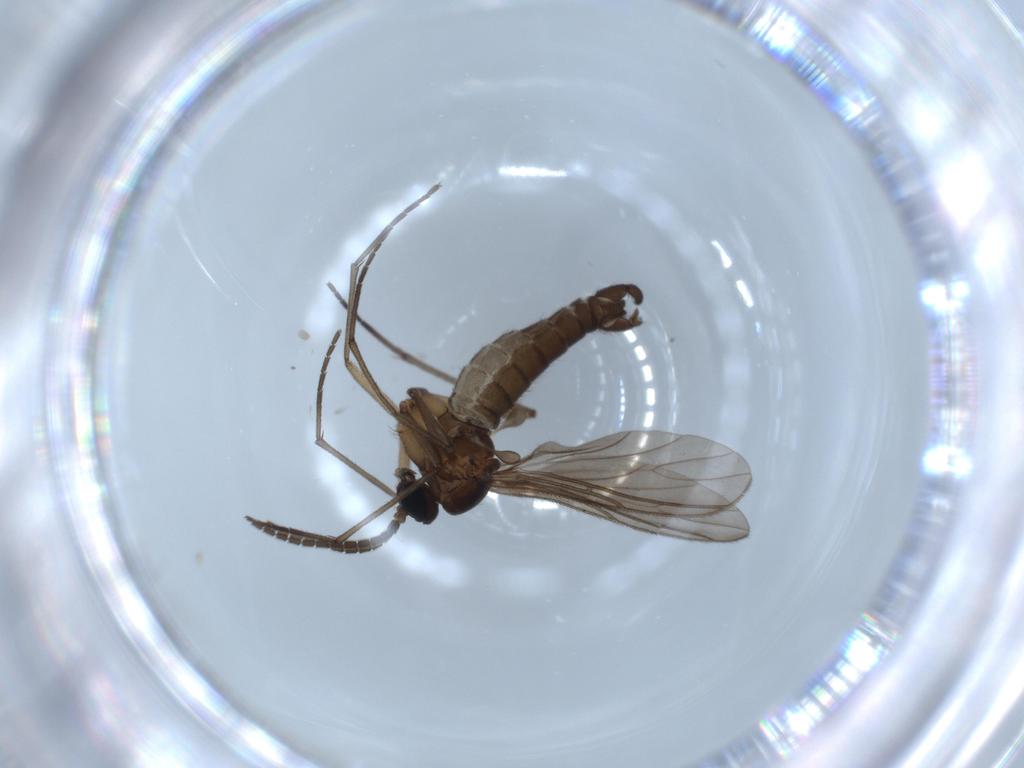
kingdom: Animalia
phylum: Arthropoda
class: Insecta
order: Diptera
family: Sciaridae
